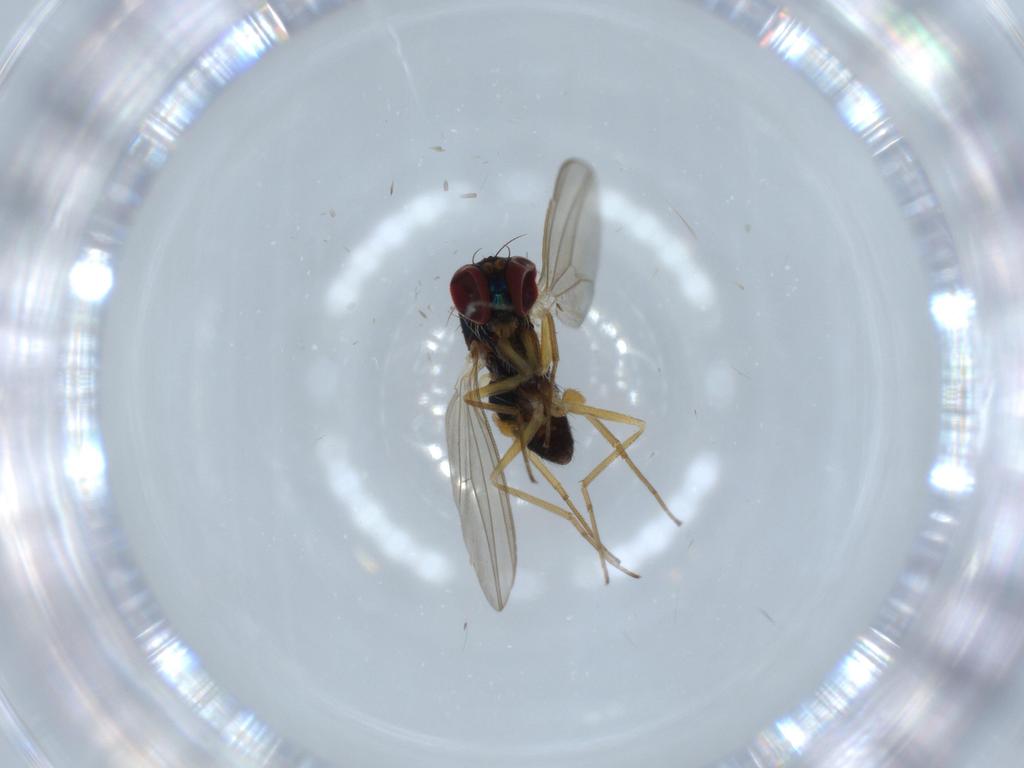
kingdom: Animalia
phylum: Arthropoda
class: Insecta
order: Diptera
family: Dolichopodidae
